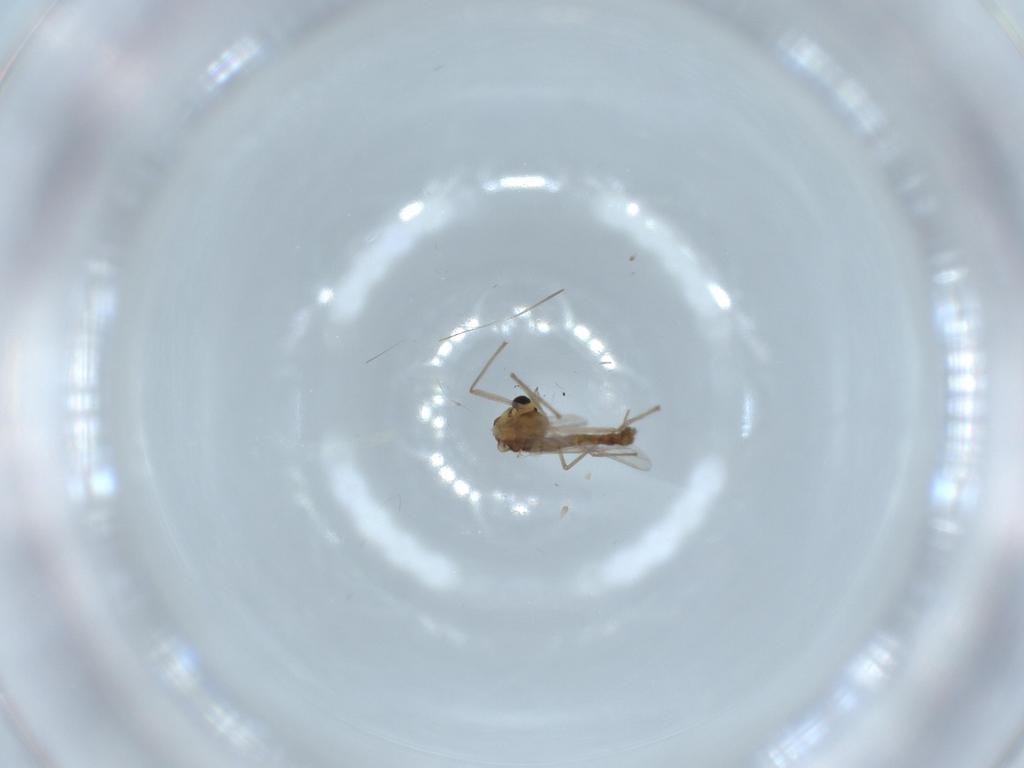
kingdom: Animalia
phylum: Arthropoda
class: Insecta
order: Diptera
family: Chironomidae
